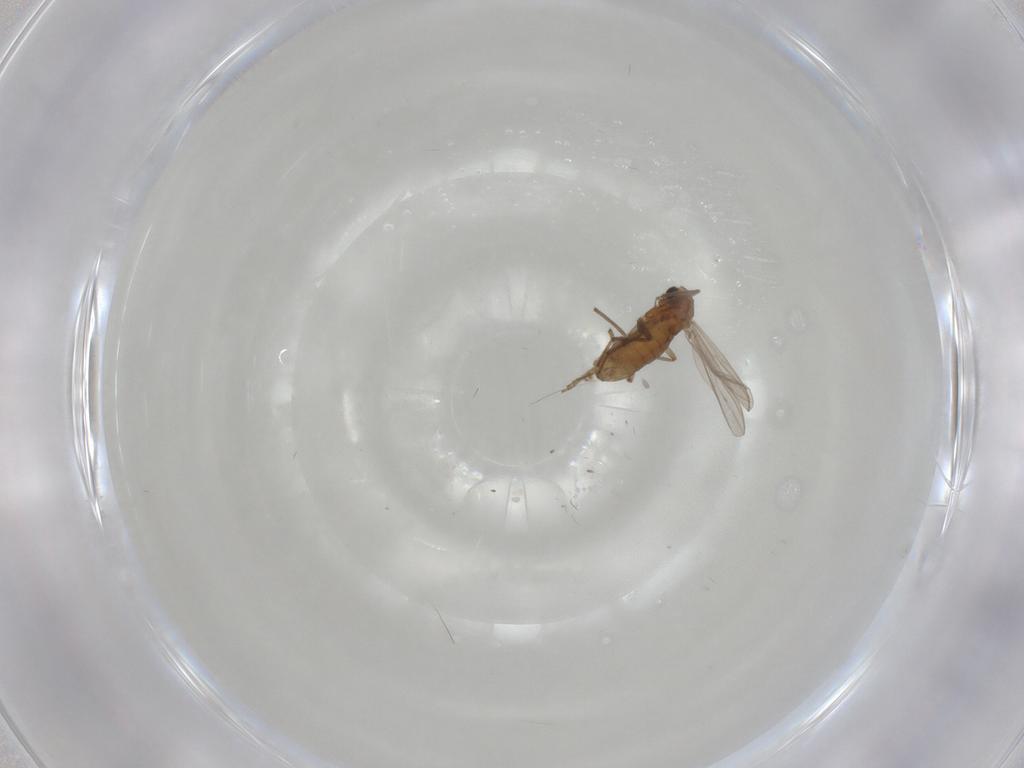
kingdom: Animalia
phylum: Arthropoda
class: Insecta
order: Diptera
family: Chironomidae
